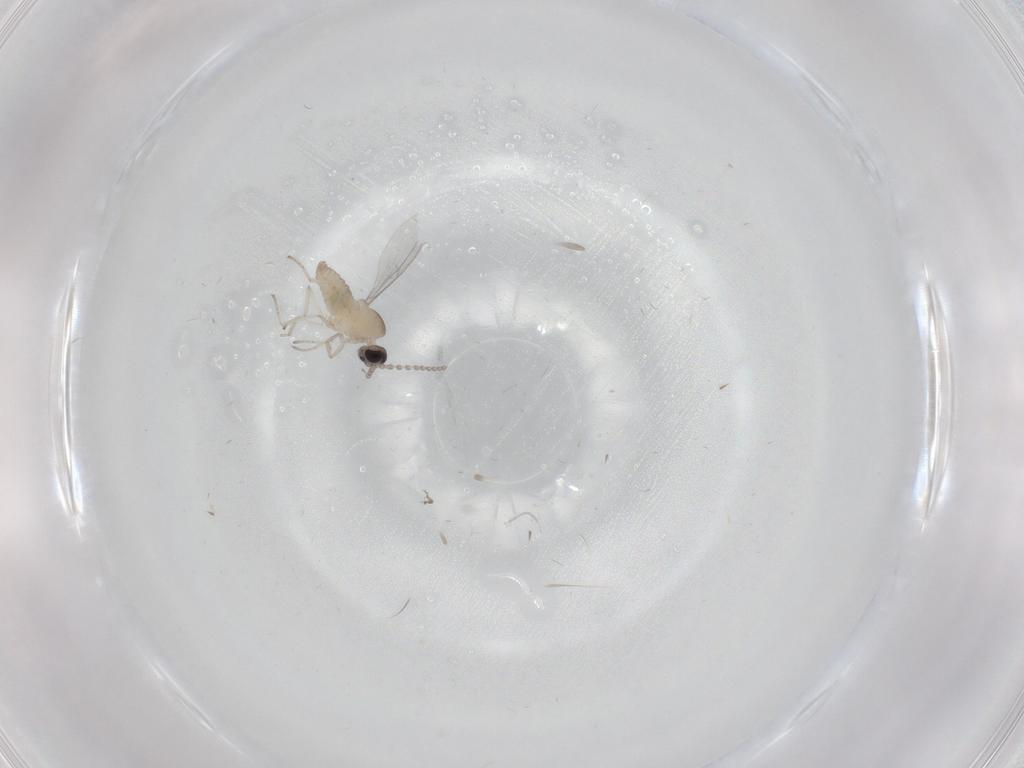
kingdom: Animalia
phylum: Arthropoda
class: Insecta
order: Diptera
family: Cecidomyiidae
